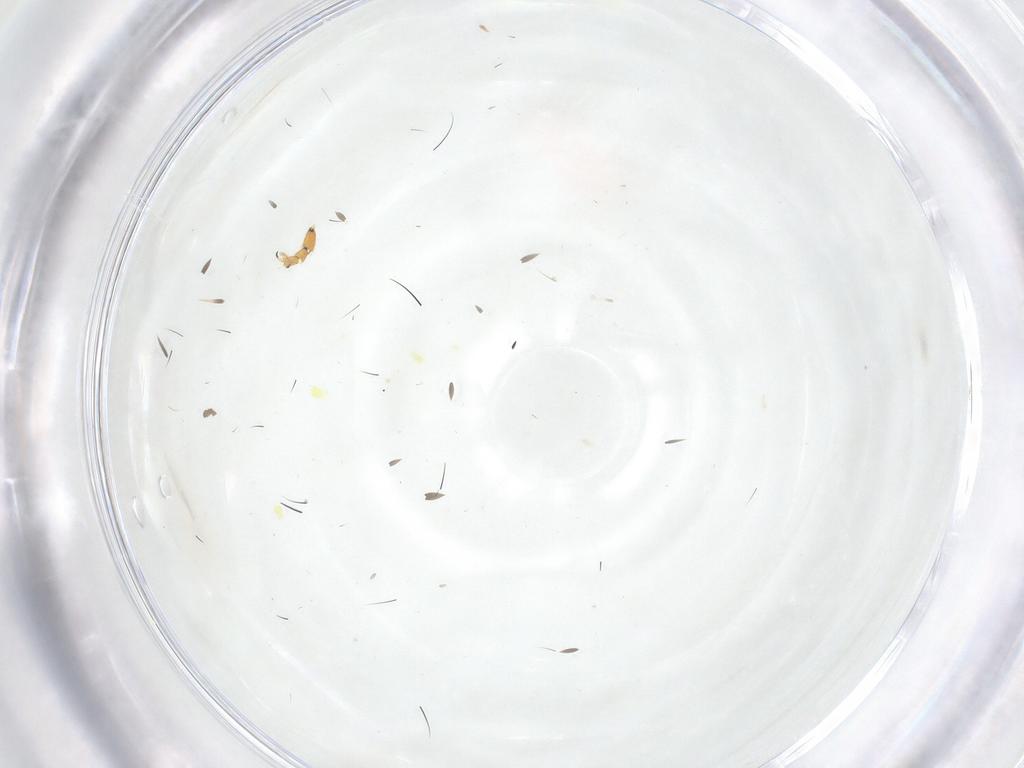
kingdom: Animalia
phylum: Arthropoda
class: Insecta
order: Diptera
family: Syrphidae
